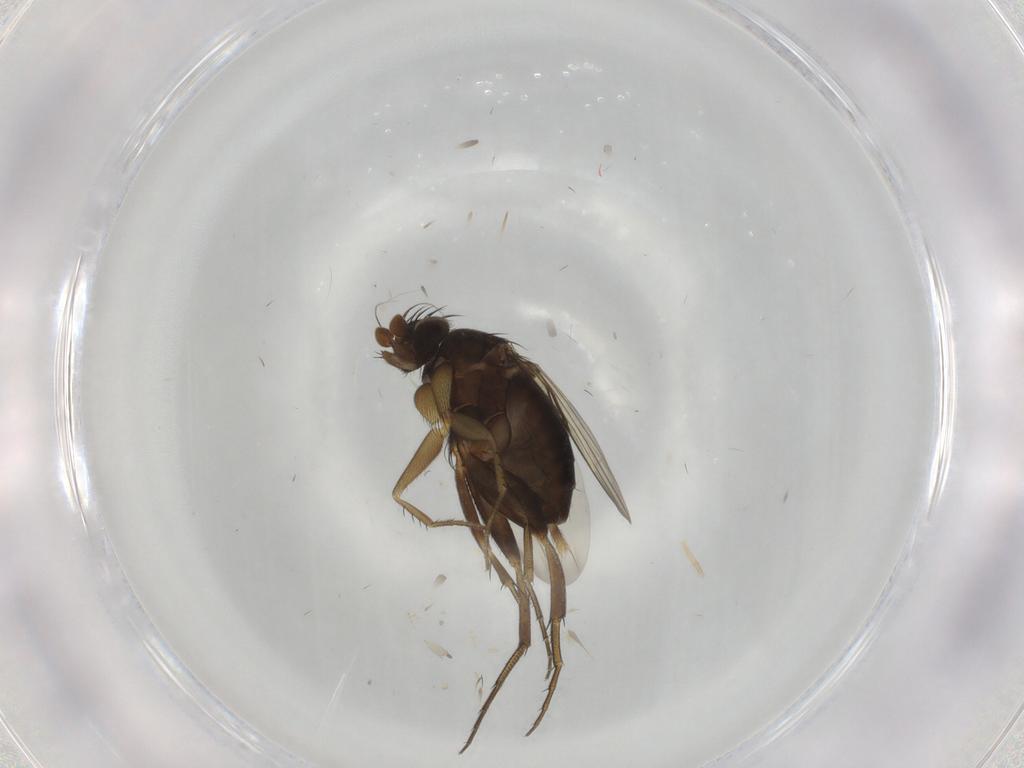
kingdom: Animalia
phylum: Arthropoda
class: Insecta
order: Diptera
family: Phoridae
